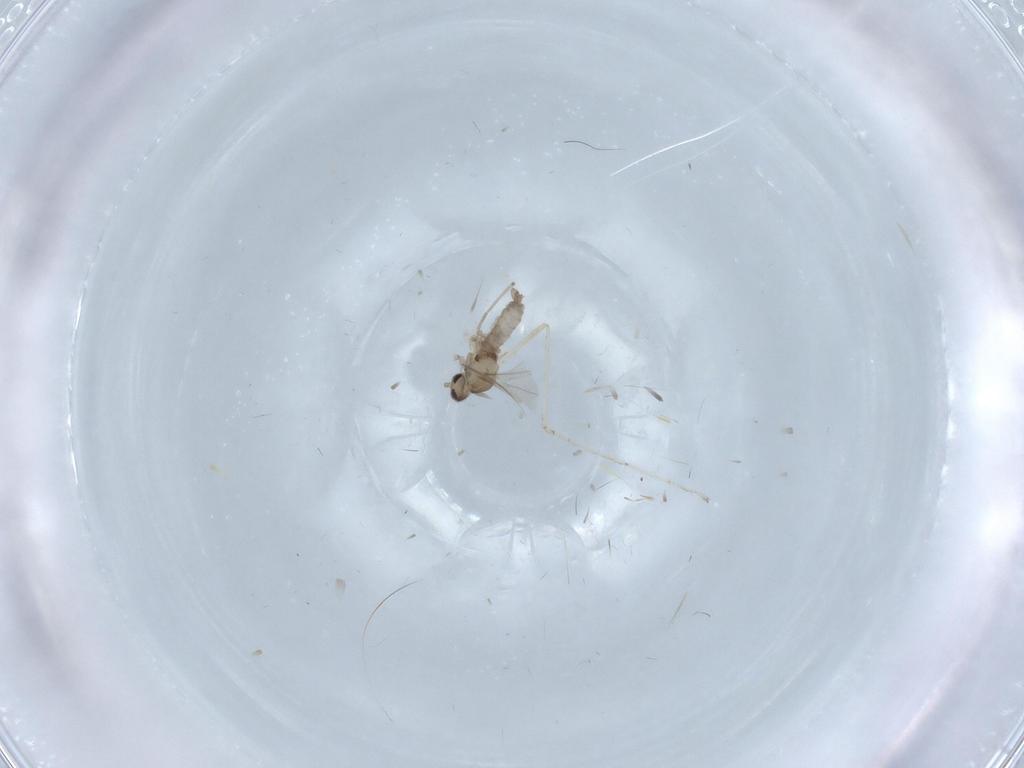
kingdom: Animalia
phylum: Arthropoda
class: Insecta
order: Diptera
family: Cecidomyiidae
